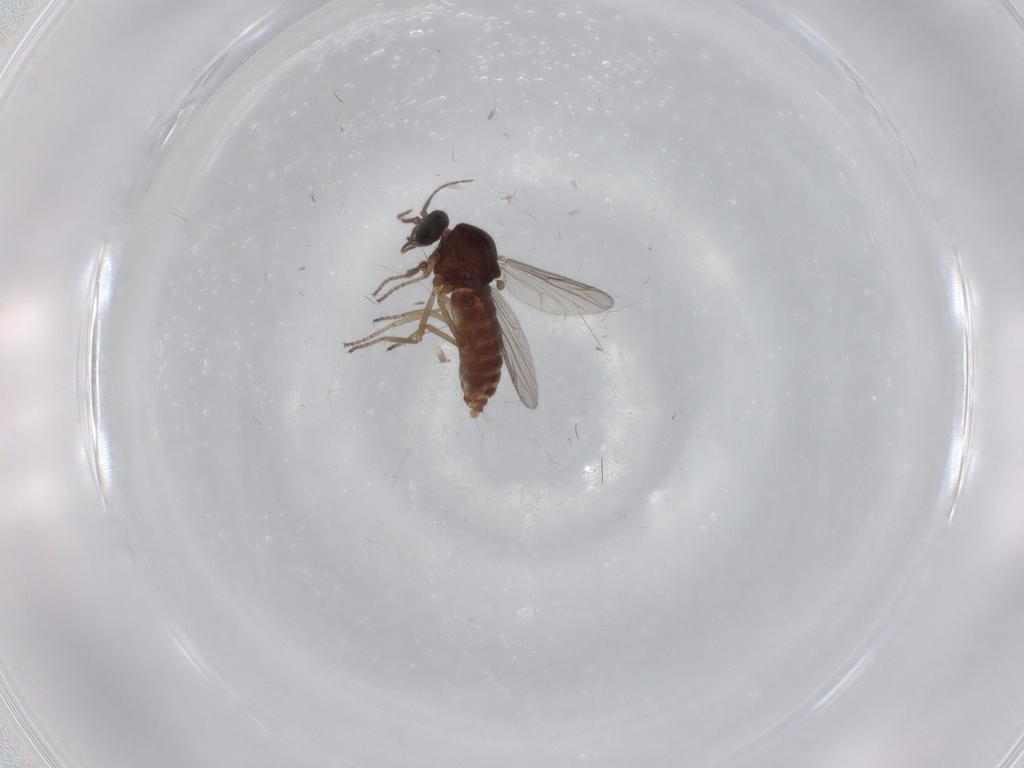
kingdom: Animalia
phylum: Arthropoda
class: Insecta
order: Diptera
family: Ceratopogonidae
